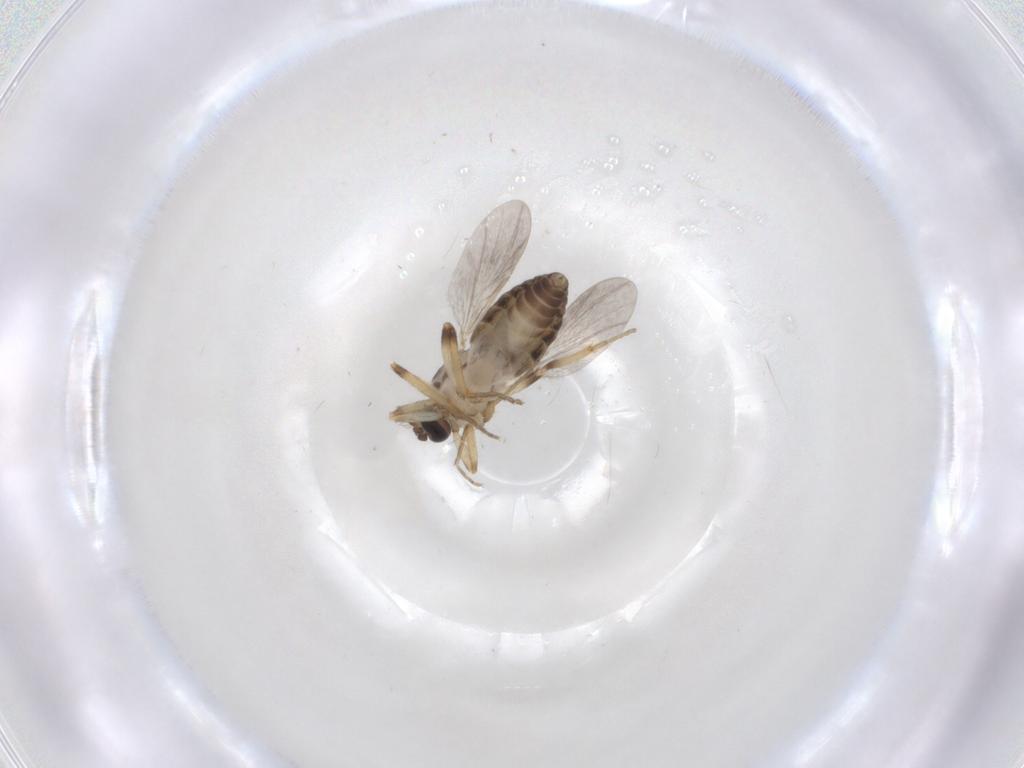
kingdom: Animalia
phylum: Arthropoda
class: Insecta
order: Diptera
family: Ceratopogonidae
